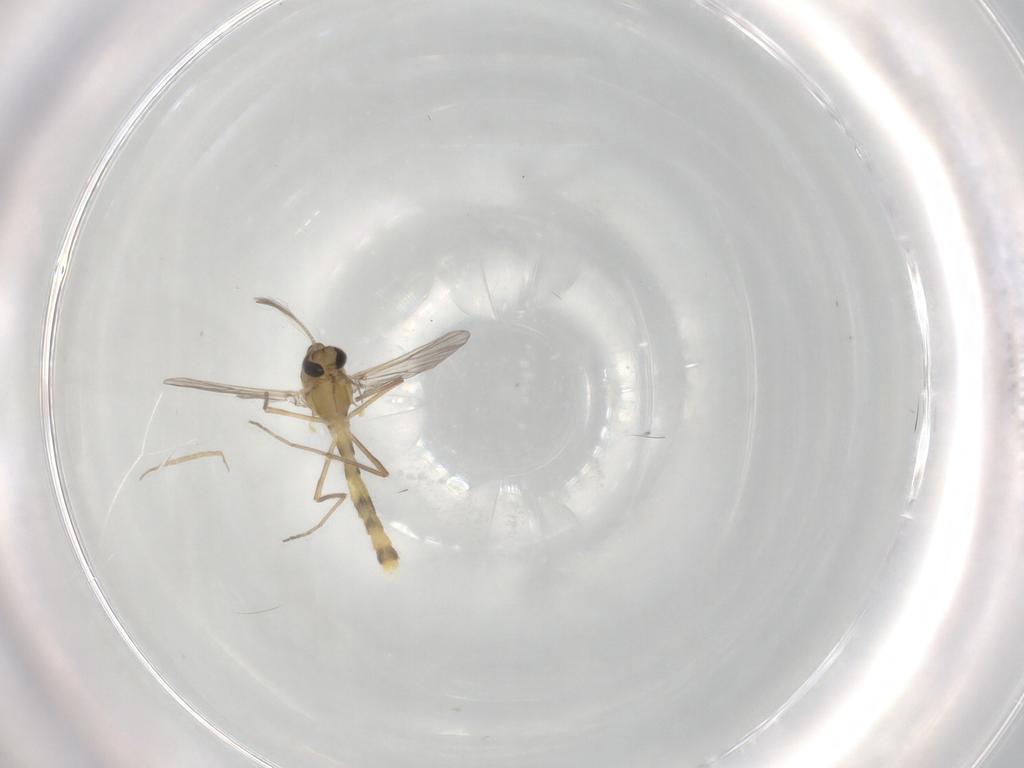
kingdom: Animalia
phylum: Arthropoda
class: Insecta
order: Diptera
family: Chironomidae
